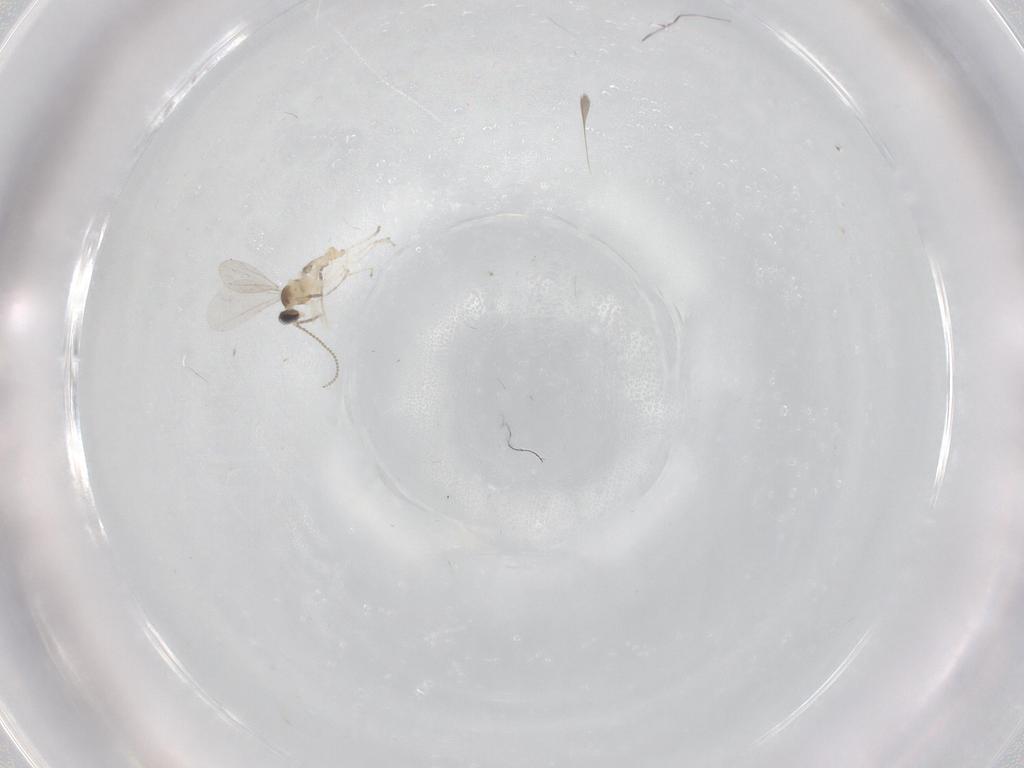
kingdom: Animalia
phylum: Arthropoda
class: Insecta
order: Diptera
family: Cecidomyiidae
